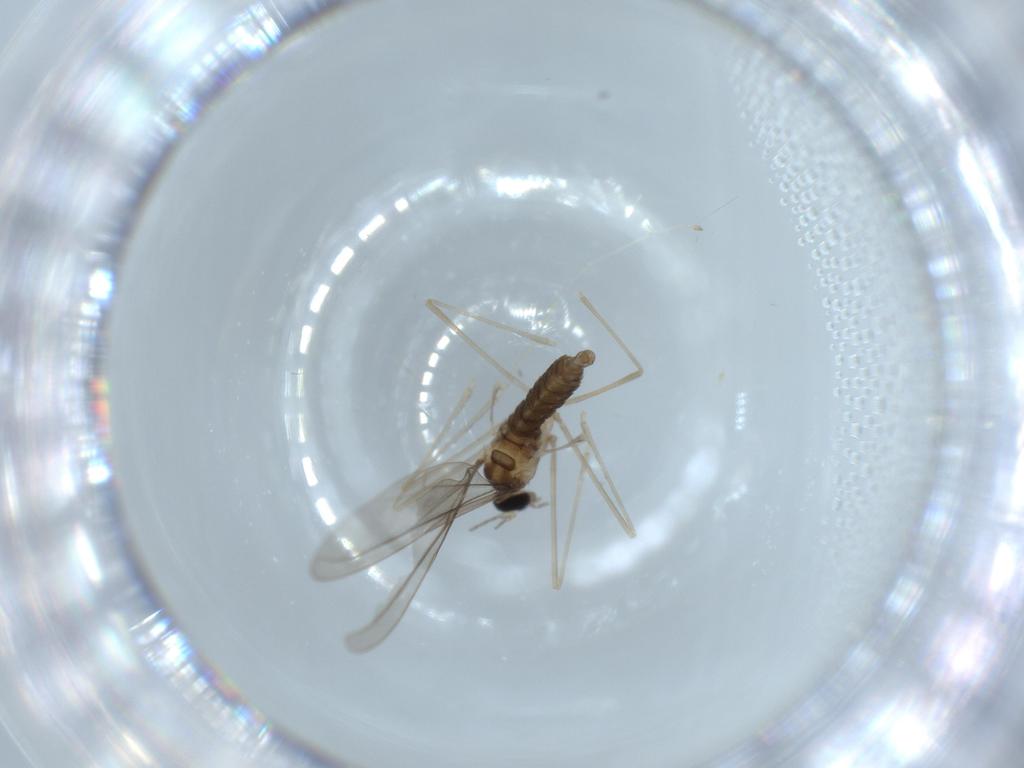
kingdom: Animalia
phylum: Arthropoda
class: Insecta
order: Diptera
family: Cecidomyiidae
